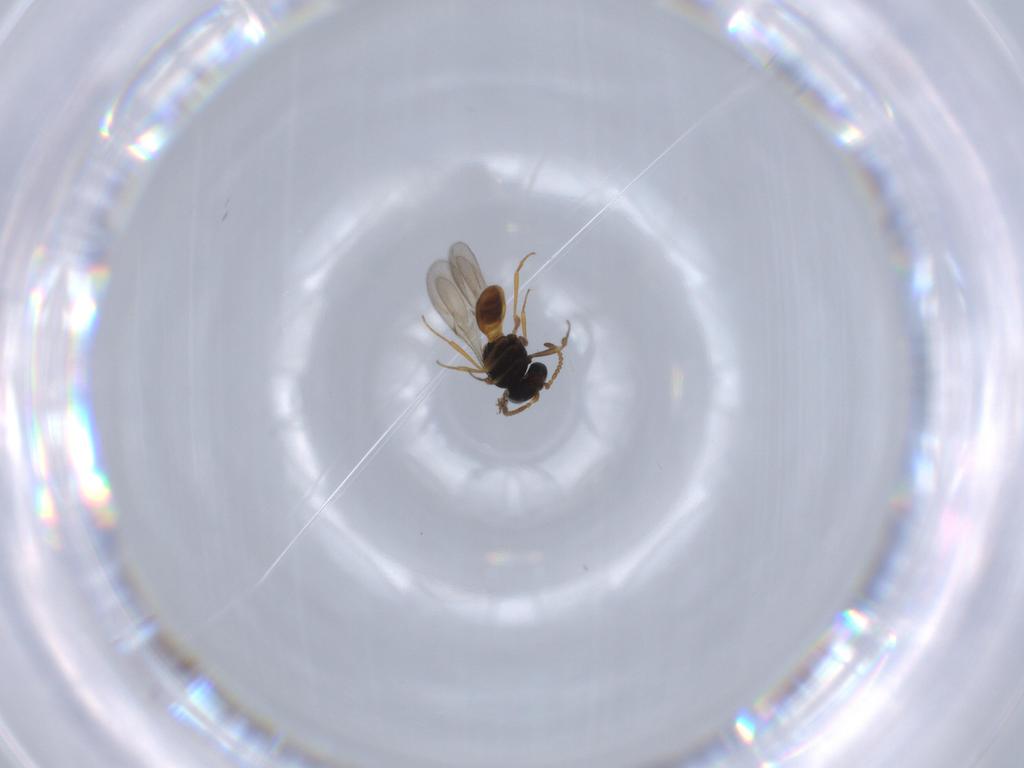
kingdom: Animalia
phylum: Arthropoda
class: Insecta
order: Hymenoptera
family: Scelionidae
